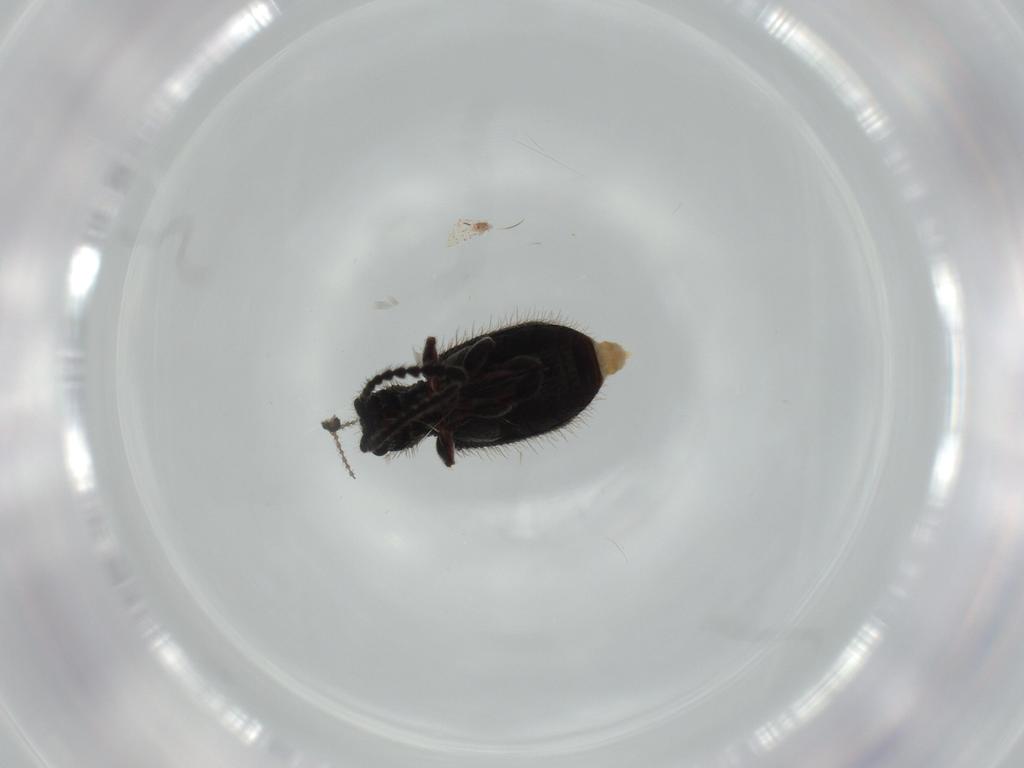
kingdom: Animalia
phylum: Arthropoda
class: Insecta
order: Coleoptera
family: Ptinidae
